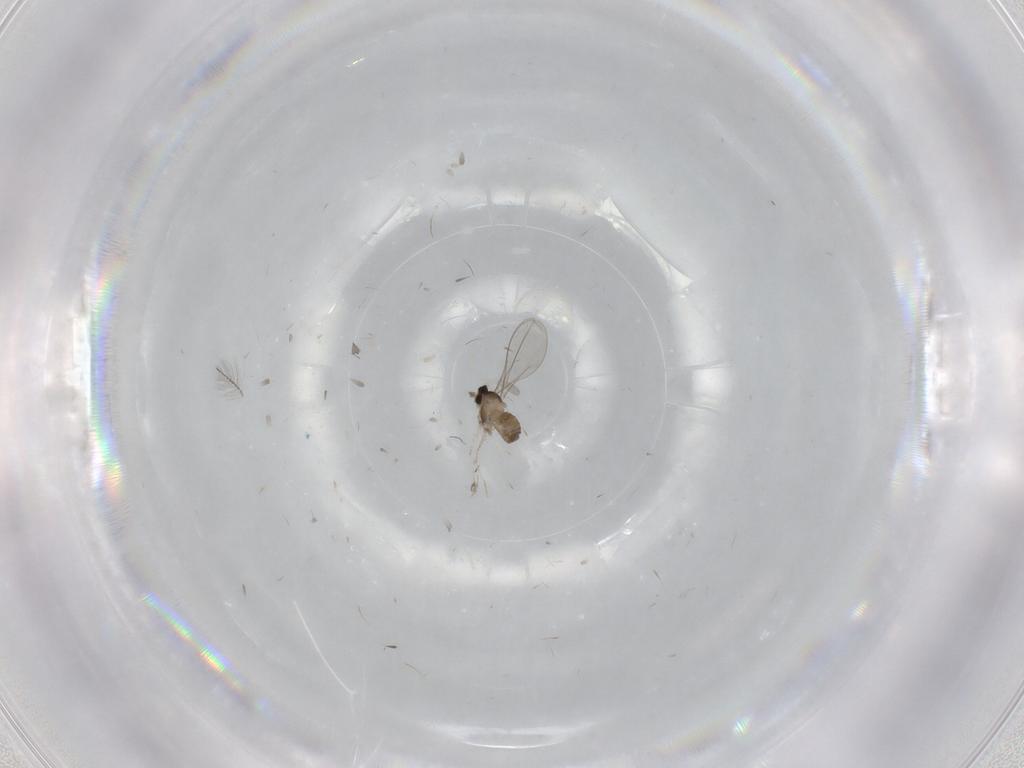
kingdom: Animalia
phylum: Arthropoda
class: Insecta
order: Diptera
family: Cecidomyiidae
